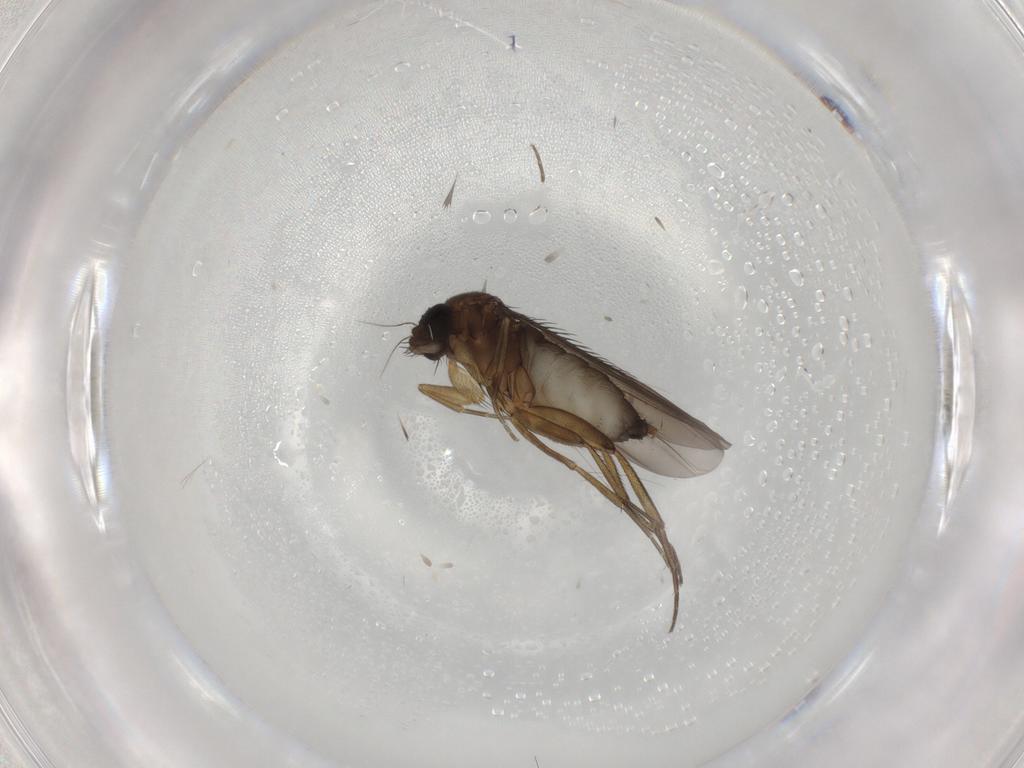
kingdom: Animalia
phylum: Arthropoda
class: Insecta
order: Diptera
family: Phoridae
